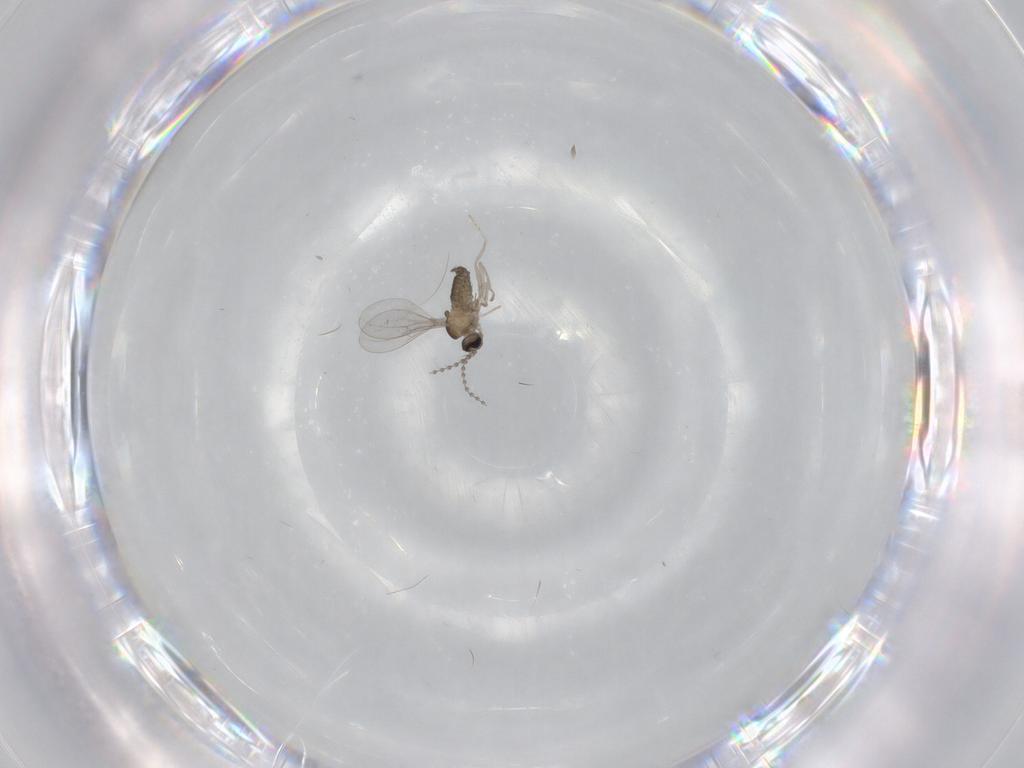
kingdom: Animalia
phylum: Arthropoda
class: Insecta
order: Diptera
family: Cecidomyiidae
